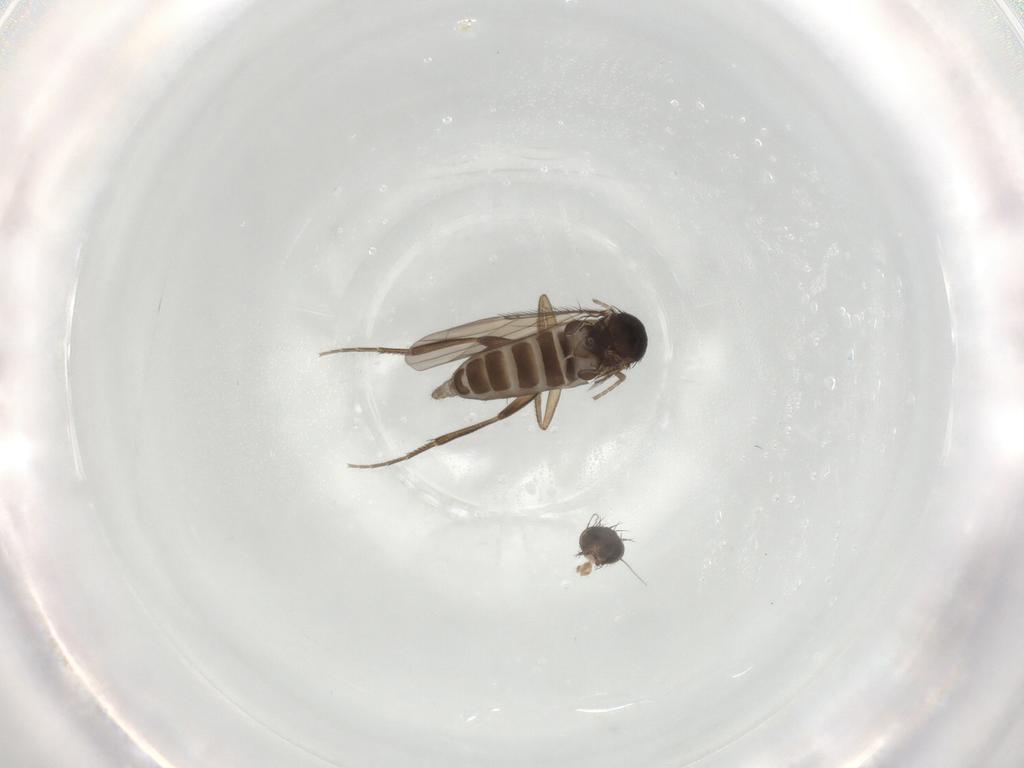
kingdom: Animalia
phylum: Arthropoda
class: Insecta
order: Diptera
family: Phoridae
